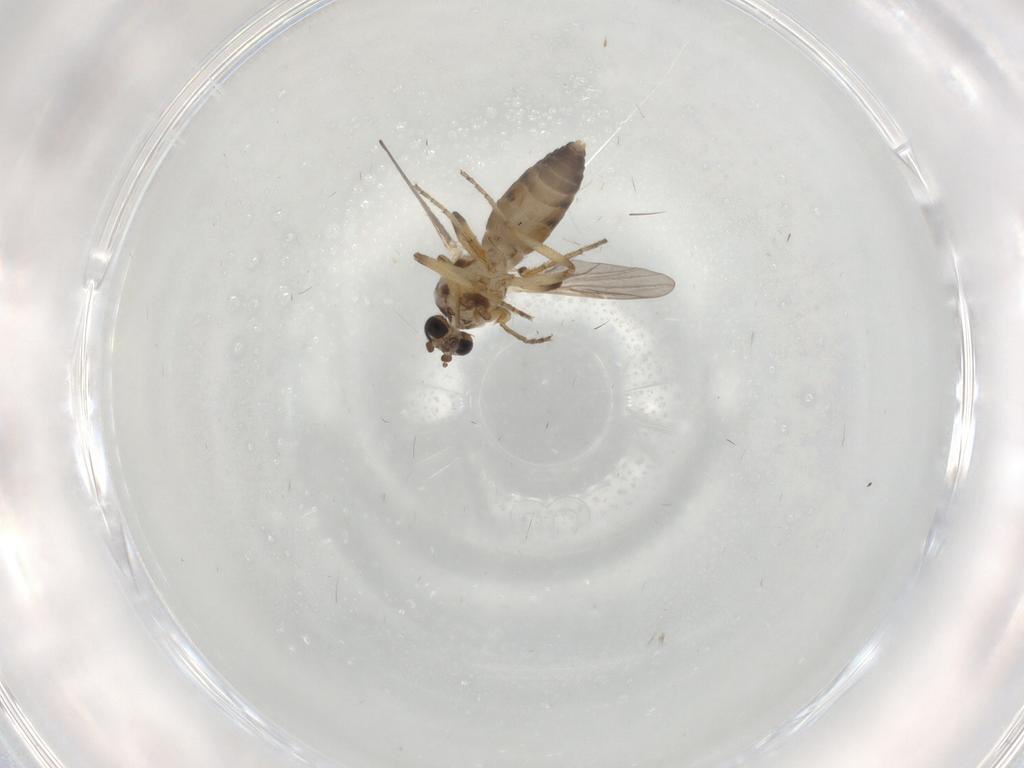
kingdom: Animalia
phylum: Arthropoda
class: Insecta
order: Diptera
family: Ceratopogonidae
